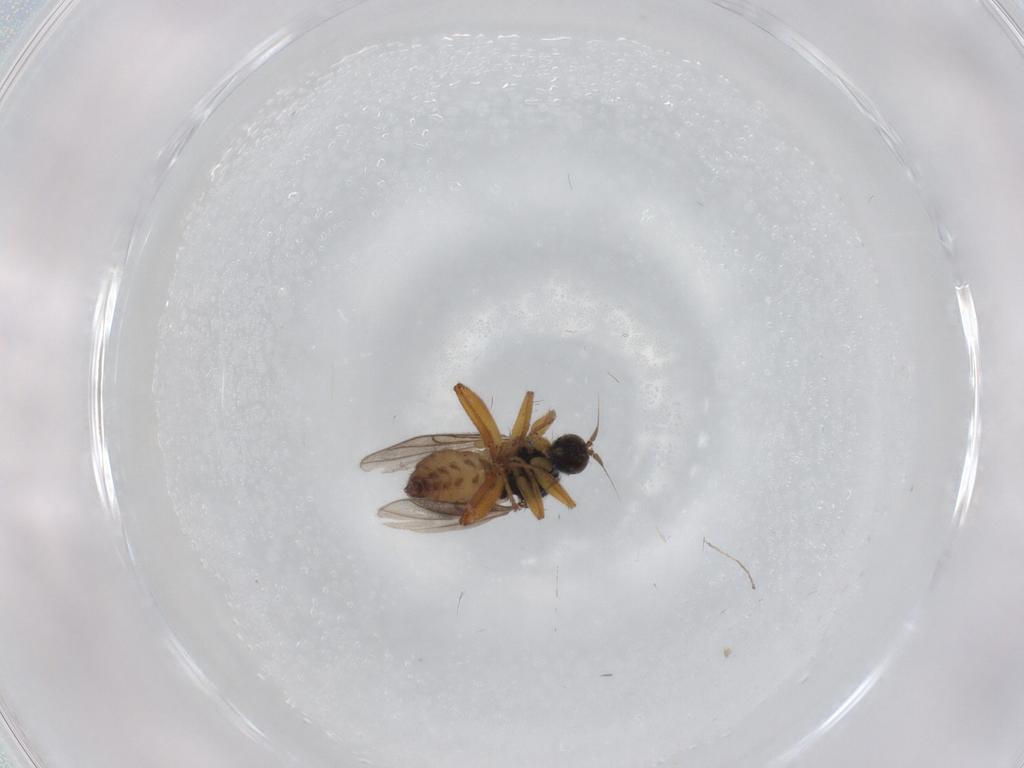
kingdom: Animalia
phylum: Arthropoda
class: Insecta
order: Diptera
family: Hybotidae
